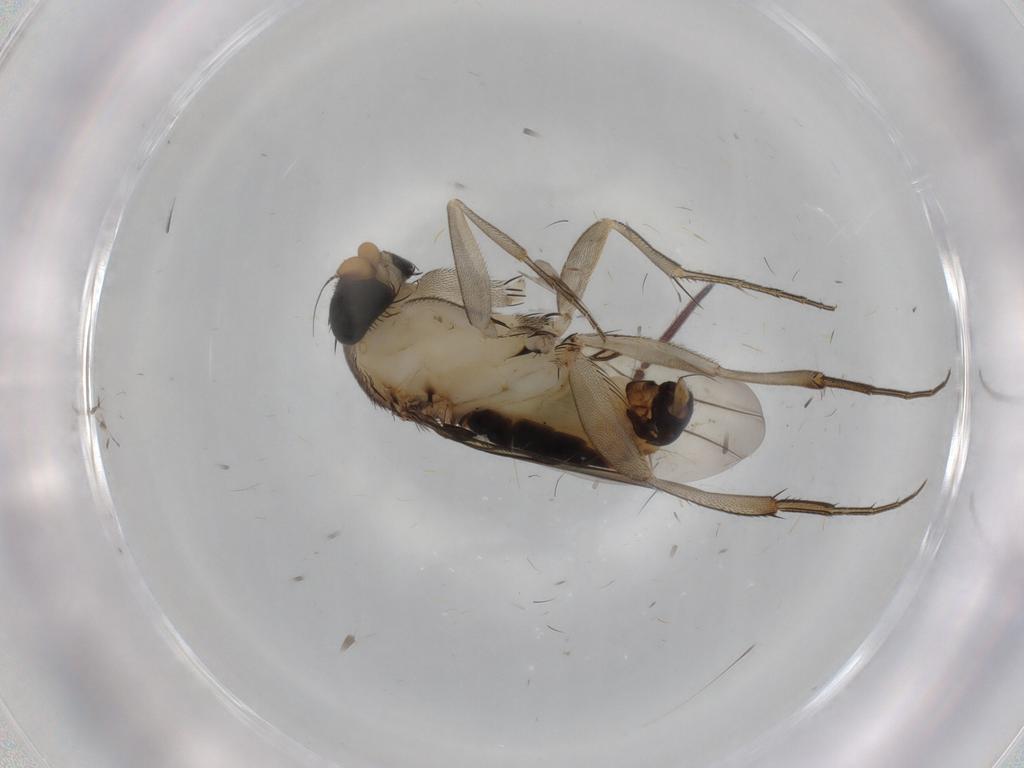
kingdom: Animalia
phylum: Arthropoda
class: Insecta
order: Diptera
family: Phoridae
